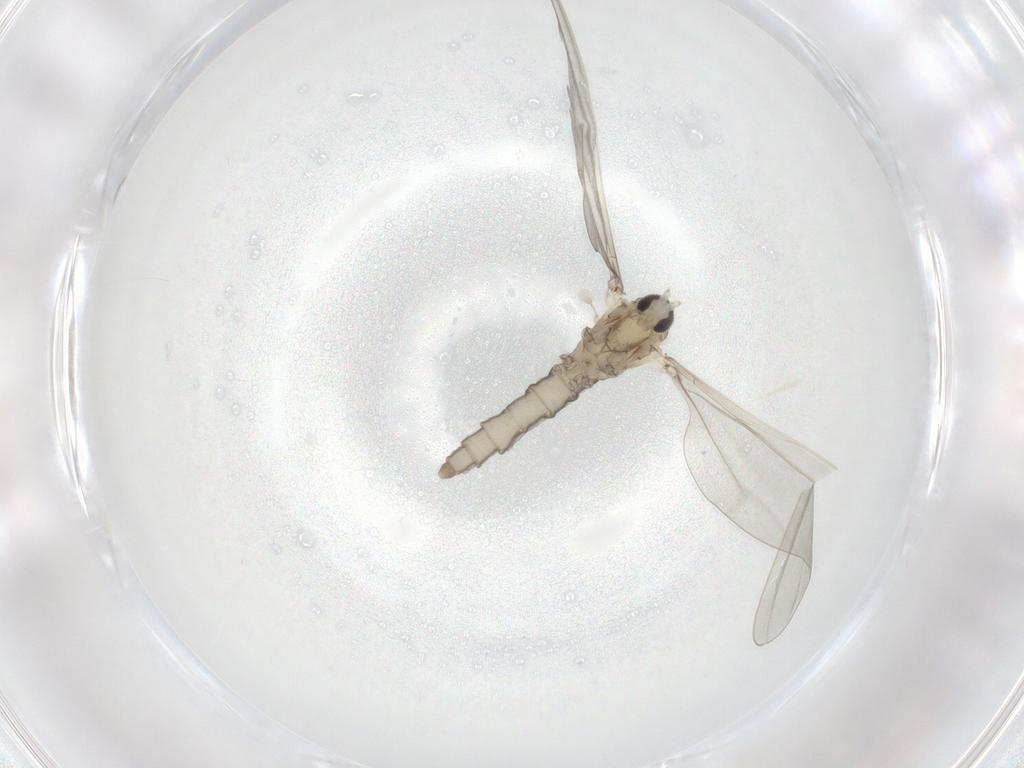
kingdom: Animalia
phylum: Arthropoda
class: Insecta
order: Diptera
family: Cecidomyiidae
